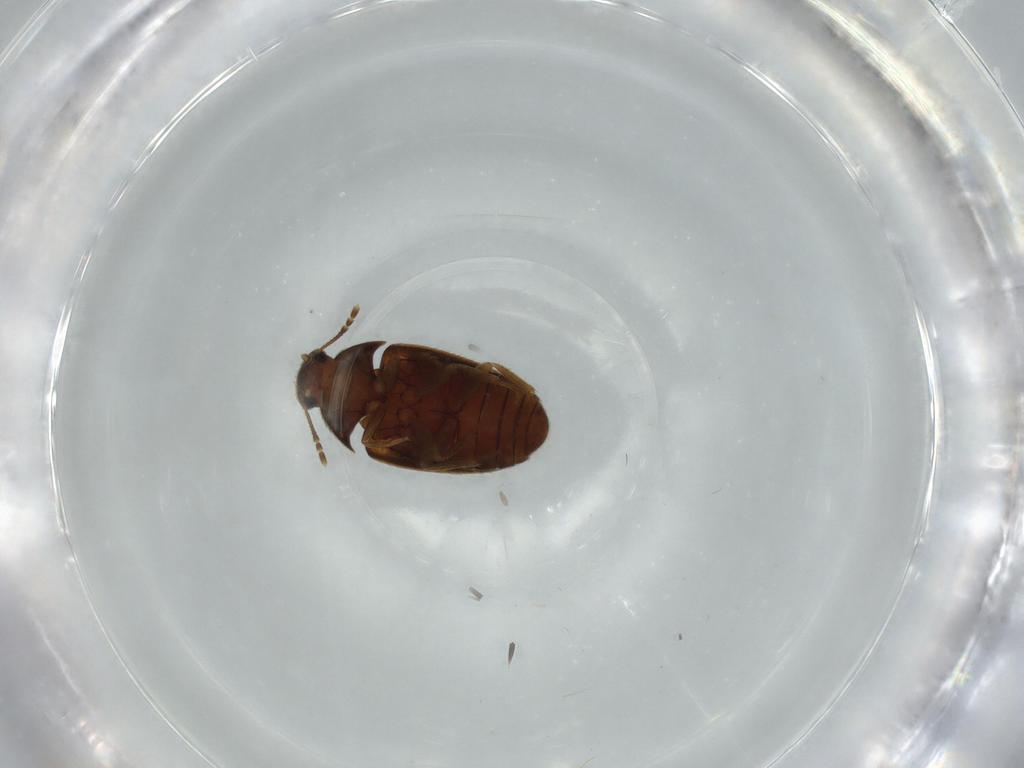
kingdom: Animalia
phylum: Arthropoda
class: Insecta
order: Coleoptera
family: Mycetophagidae
